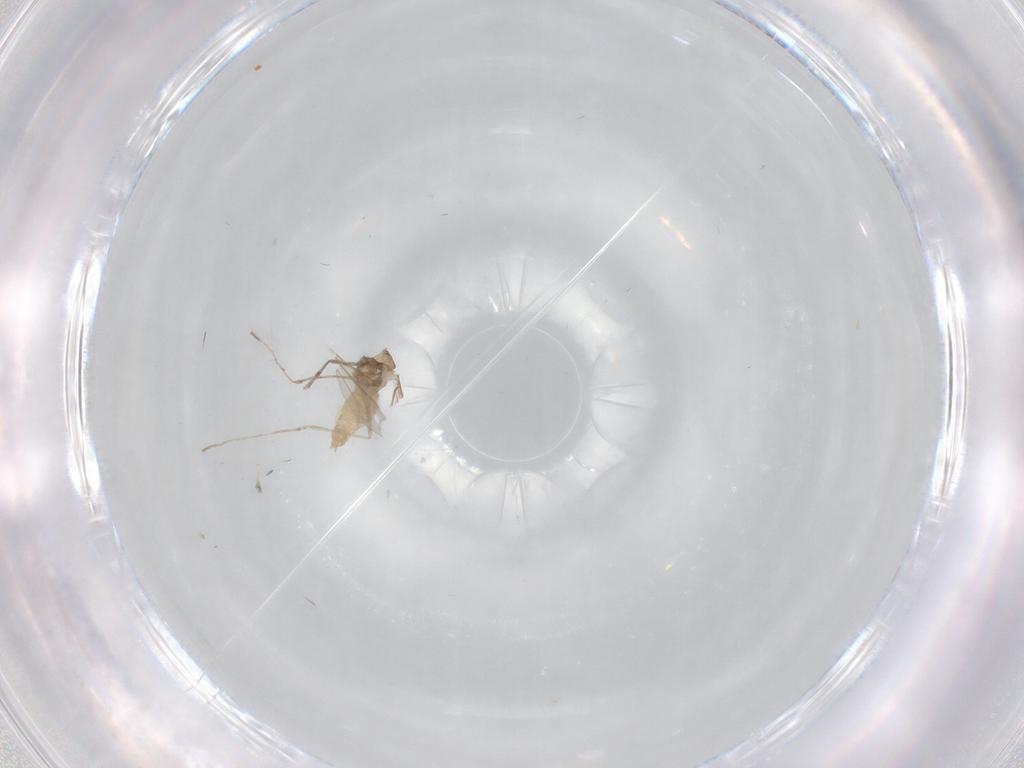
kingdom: Animalia
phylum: Arthropoda
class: Insecta
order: Diptera
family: Cecidomyiidae
